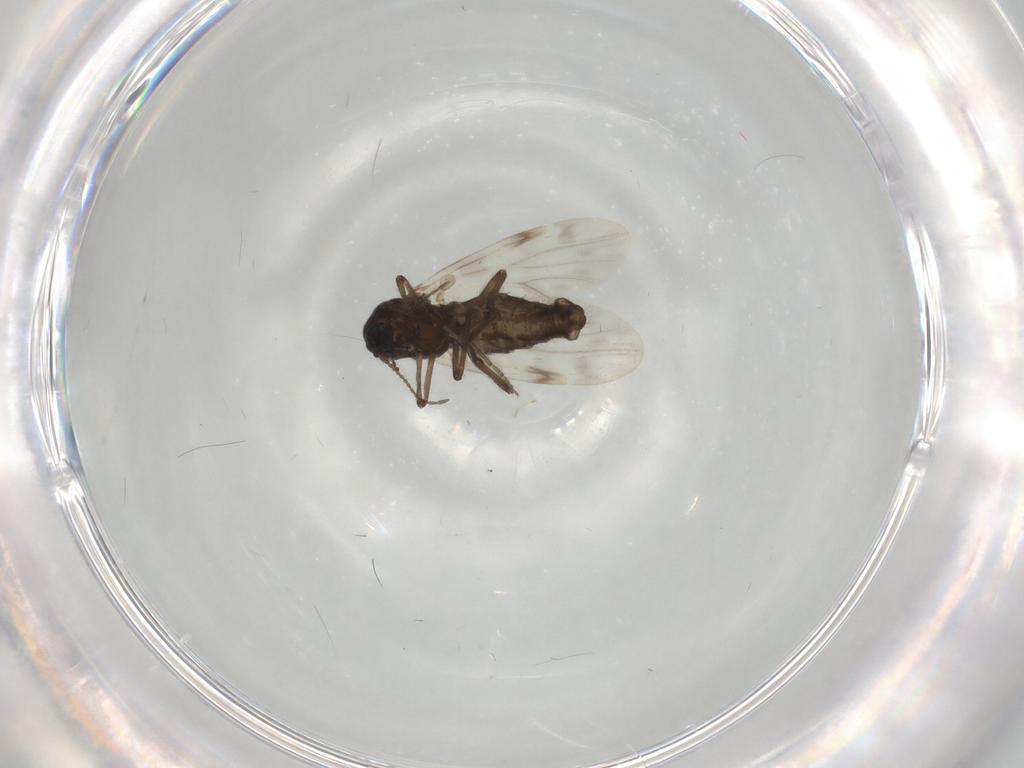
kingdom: Animalia
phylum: Arthropoda
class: Insecta
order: Diptera
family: Ceratopogonidae
